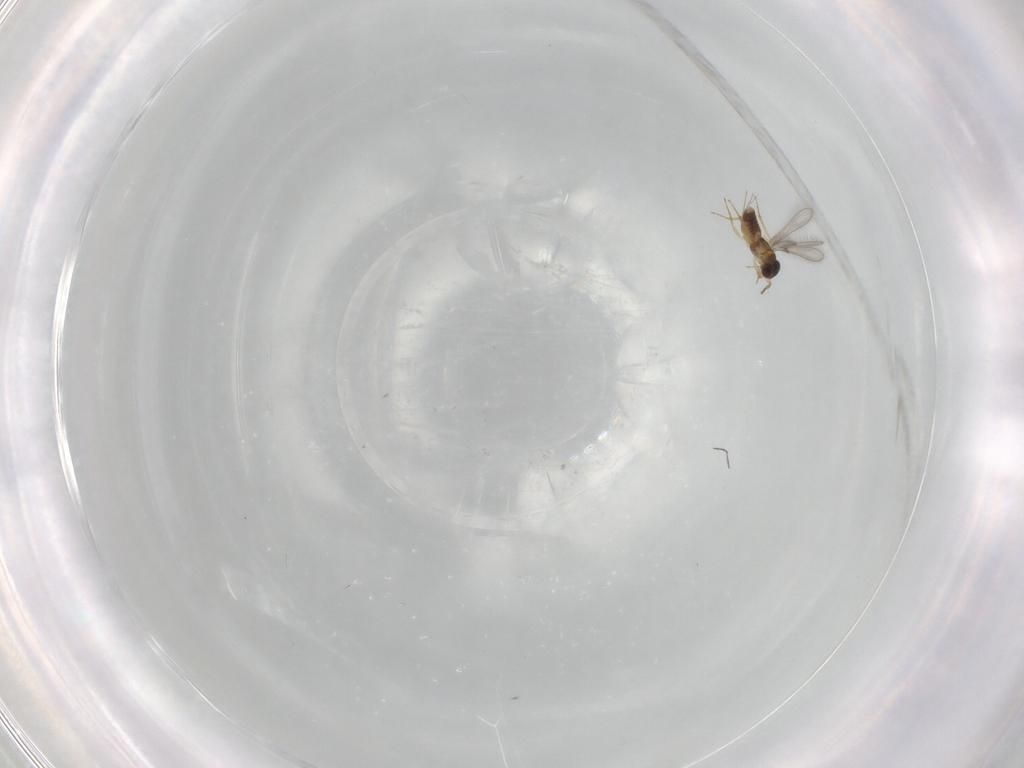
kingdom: Animalia
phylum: Arthropoda
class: Insecta
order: Hymenoptera
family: Mymaridae
